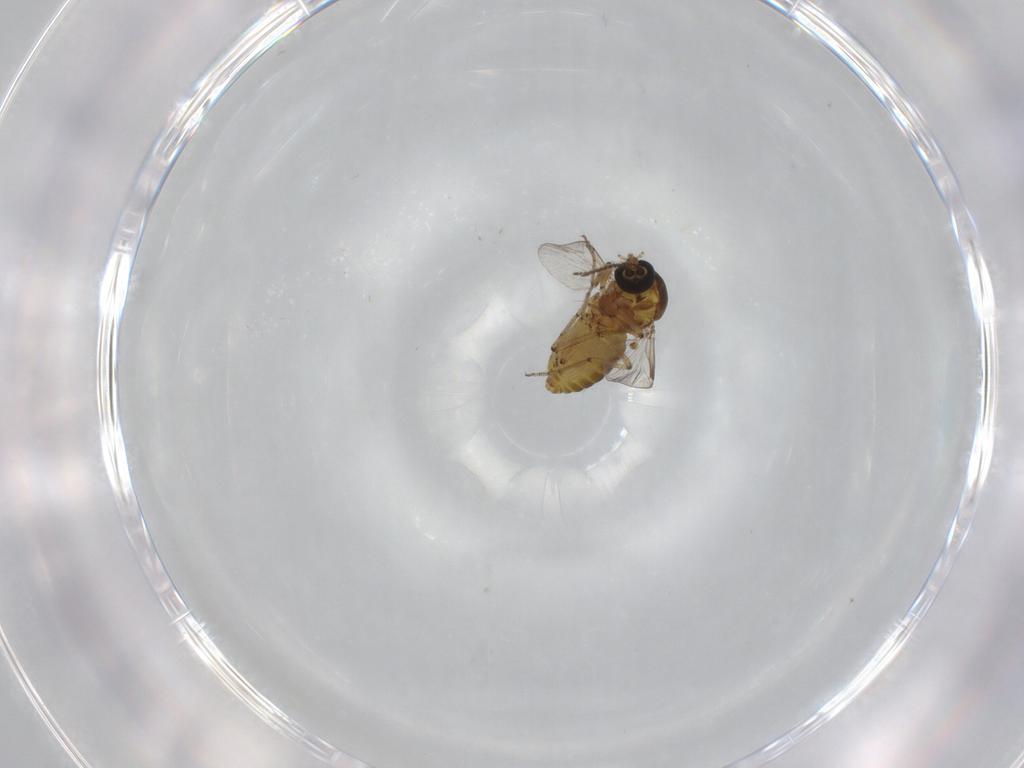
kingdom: Animalia
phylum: Arthropoda
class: Insecta
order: Diptera
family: Ceratopogonidae
